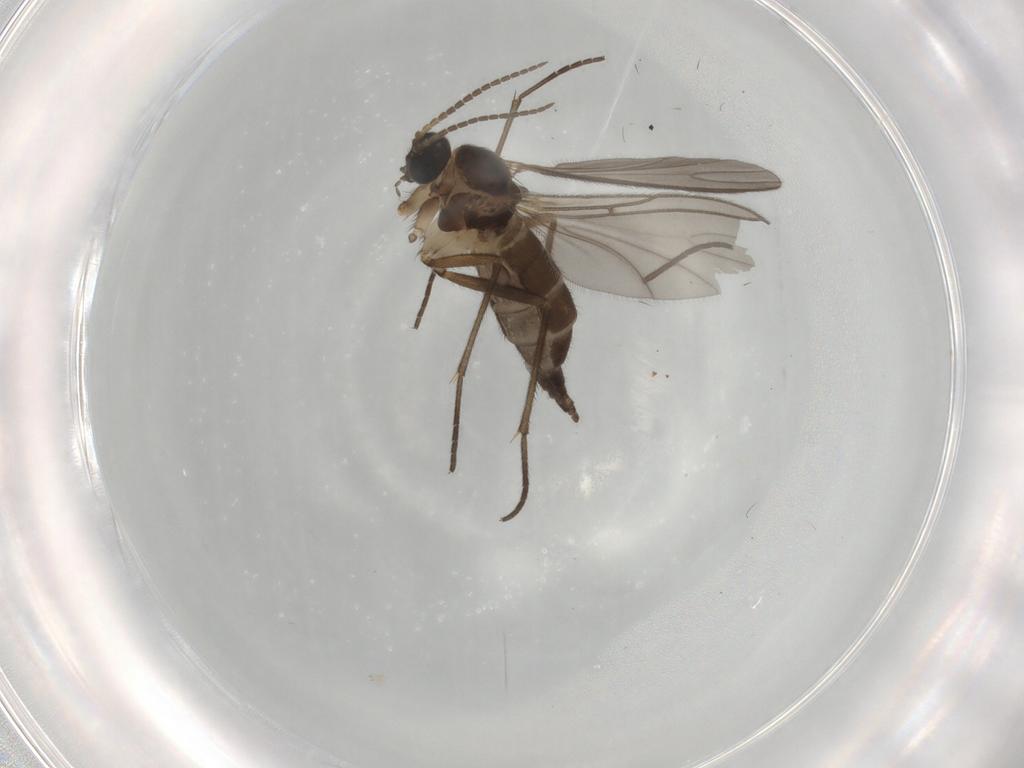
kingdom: Animalia
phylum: Arthropoda
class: Insecta
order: Diptera
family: Sciaridae
